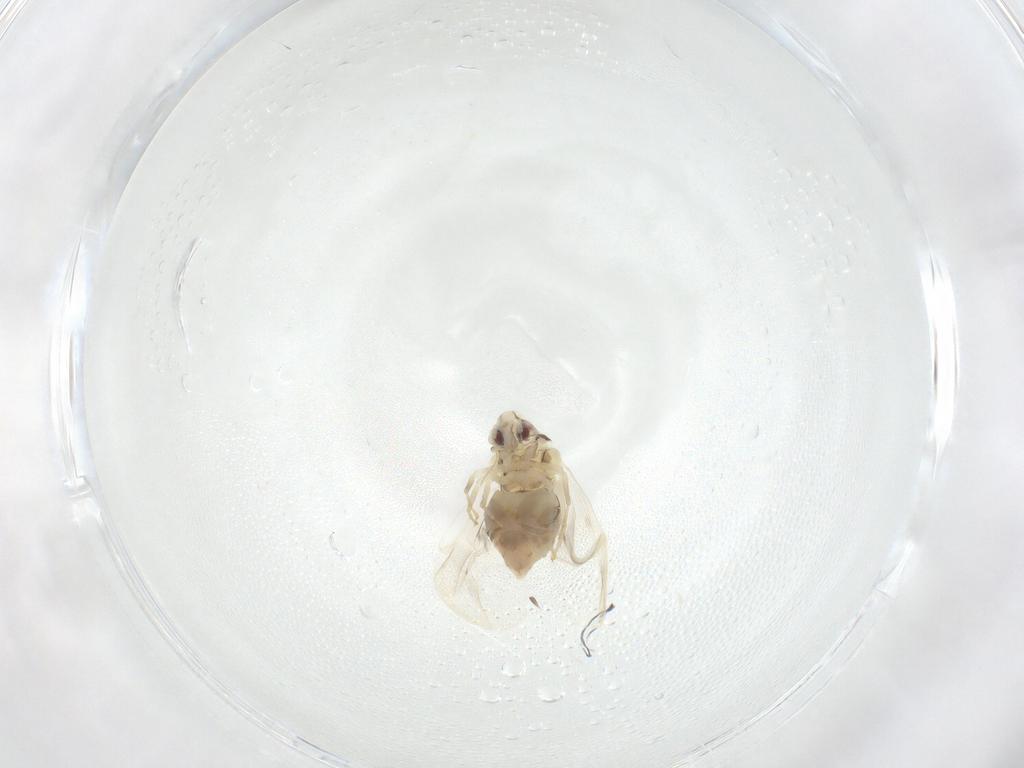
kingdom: Animalia
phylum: Arthropoda
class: Insecta
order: Hemiptera
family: Aleyrodidae
